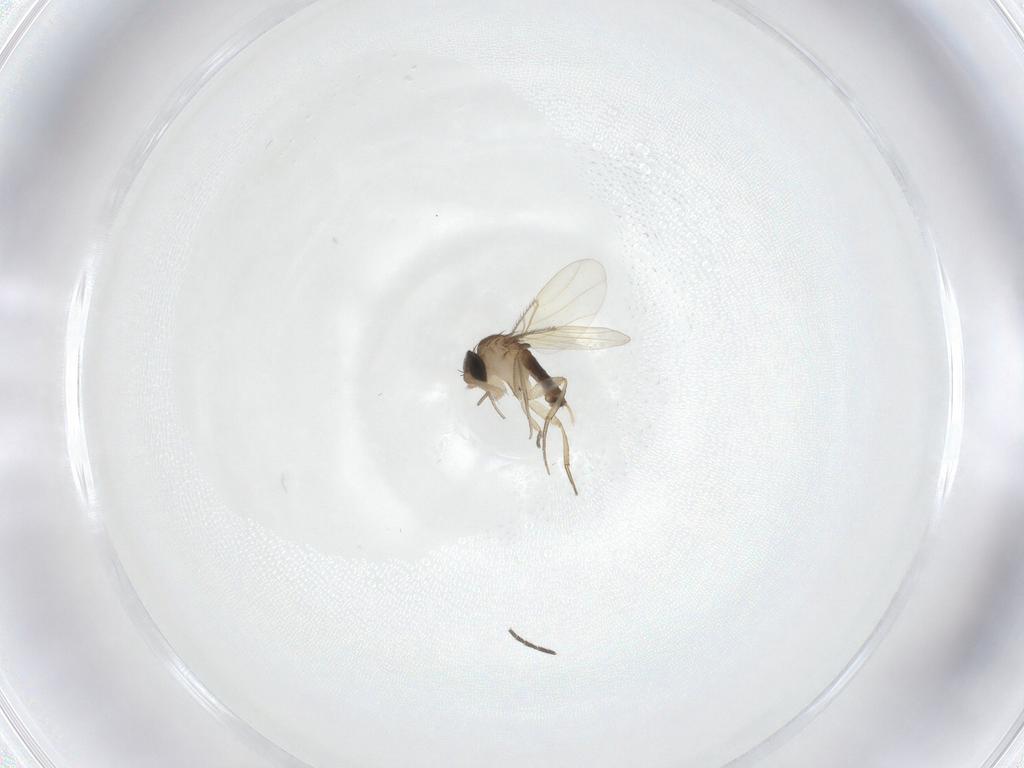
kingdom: Animalia
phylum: Arthropoda
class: Insecta
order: Diptera
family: Phoridae
